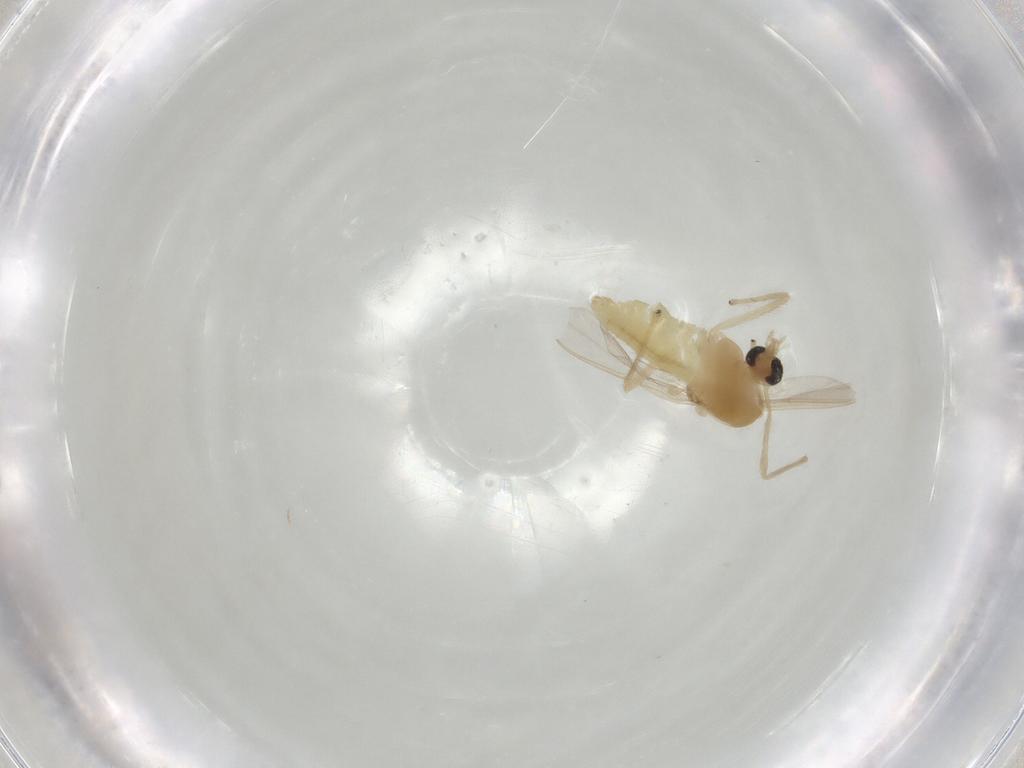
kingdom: Animalia
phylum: Arthropoda
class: Insecta
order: Diptera
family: Chironomidae
